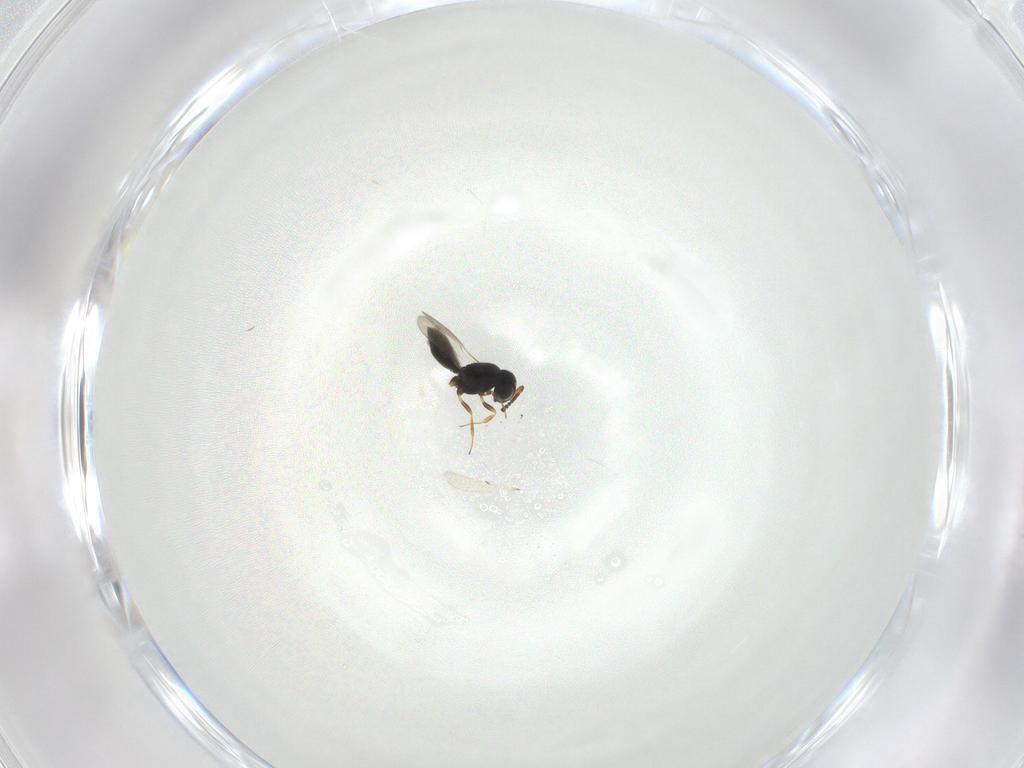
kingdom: Animalia
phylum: Arthropoda
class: Insecta
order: Hymenoptera
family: Scelionidae
